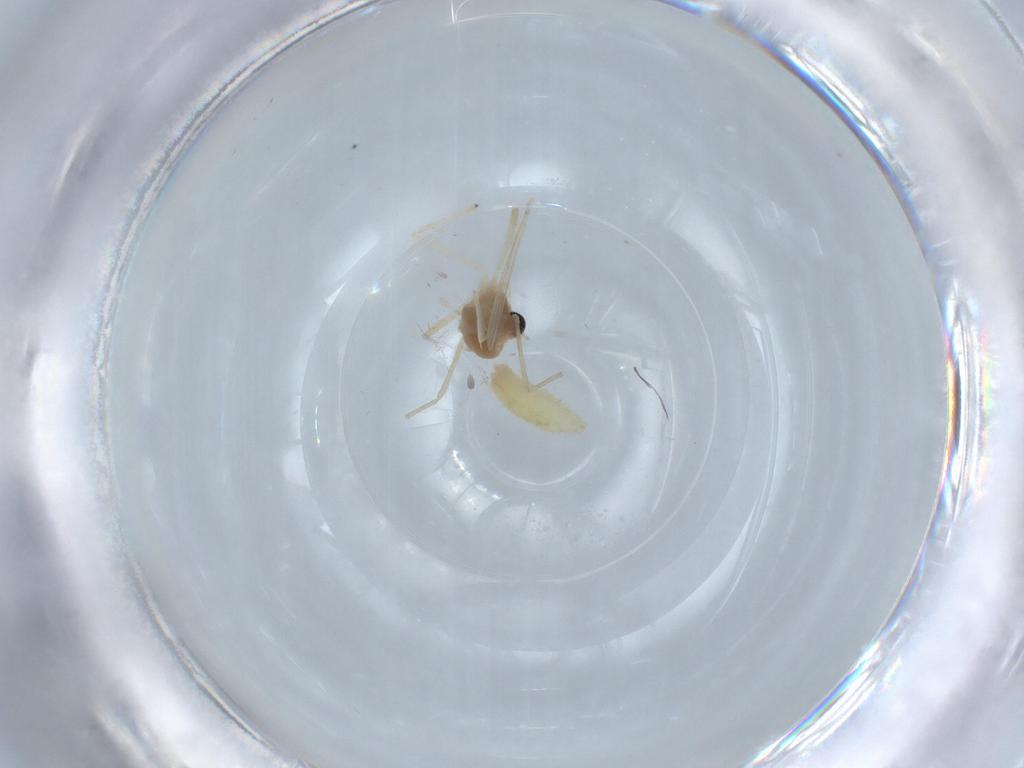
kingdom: Animalia
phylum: Arthropoda
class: Insecta
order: Diptera
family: Chironomidae
